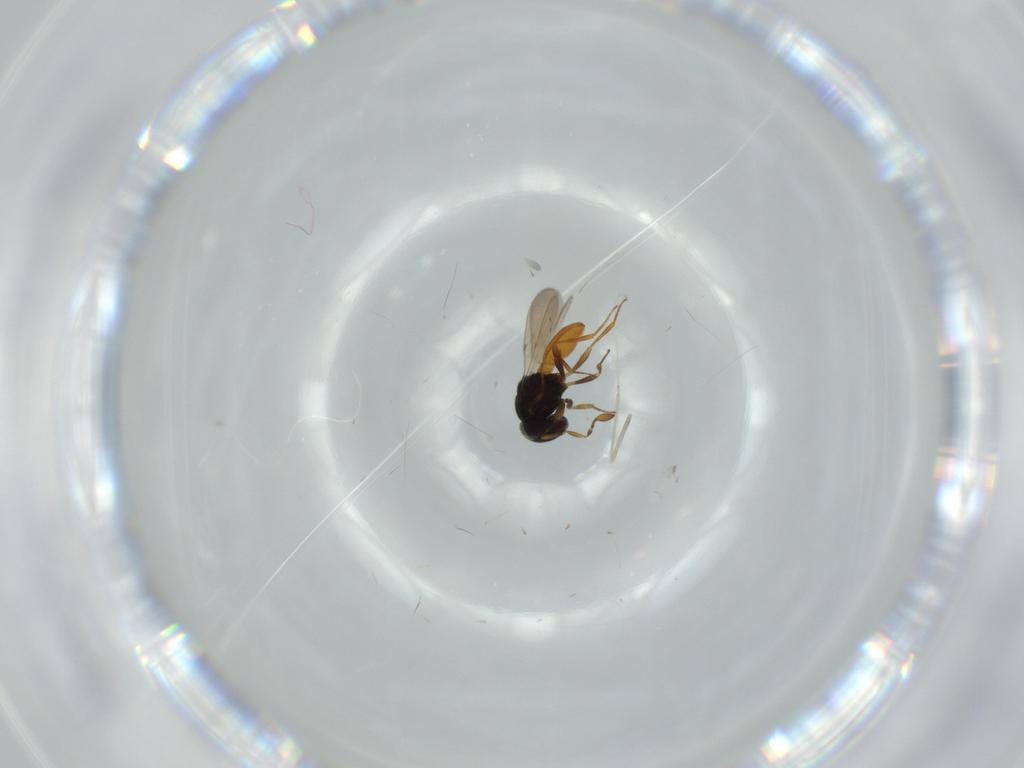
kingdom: Animalia
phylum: Arthropoda
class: Insecta
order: Hymenoptera
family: Scelionidae
